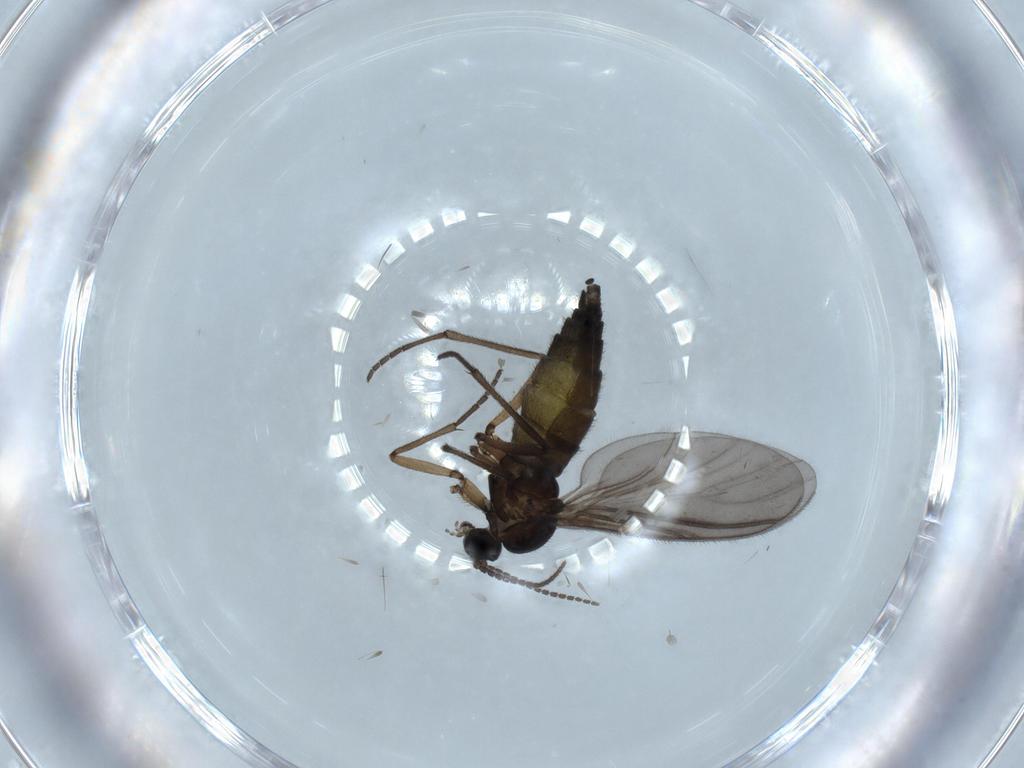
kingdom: Animalia
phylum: Arthropoda
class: Insecta
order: Diptera
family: Sciaridae
